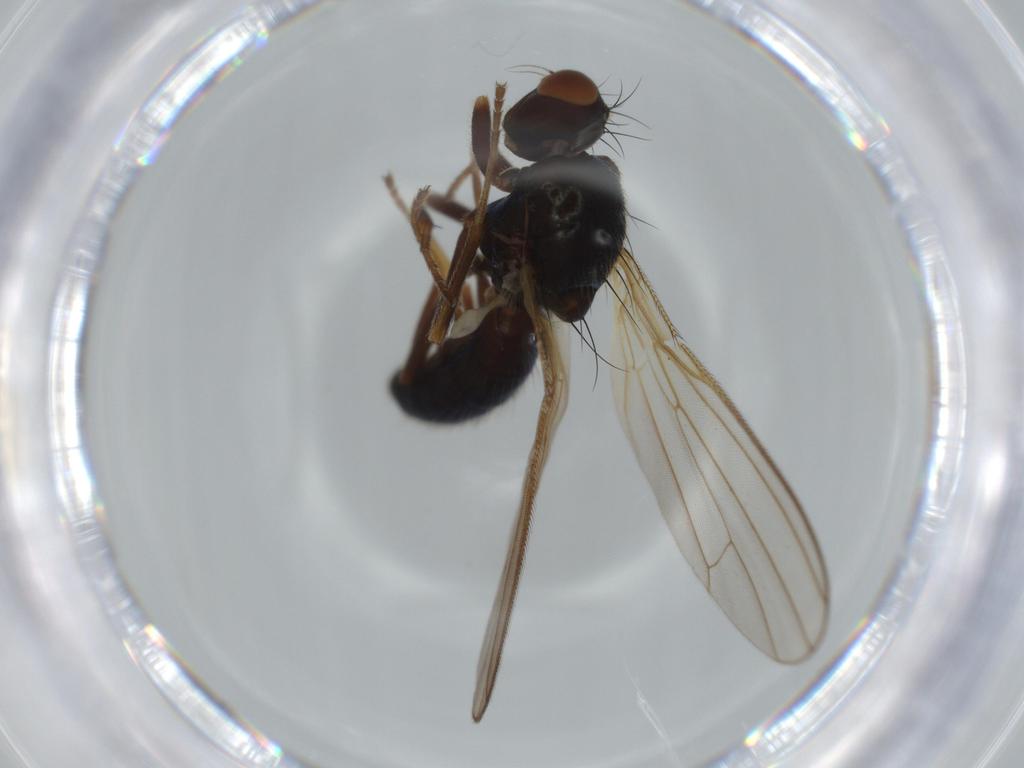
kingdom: Animalia
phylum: Arthropoda
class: Insecta
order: Diptera
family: Psilidae
